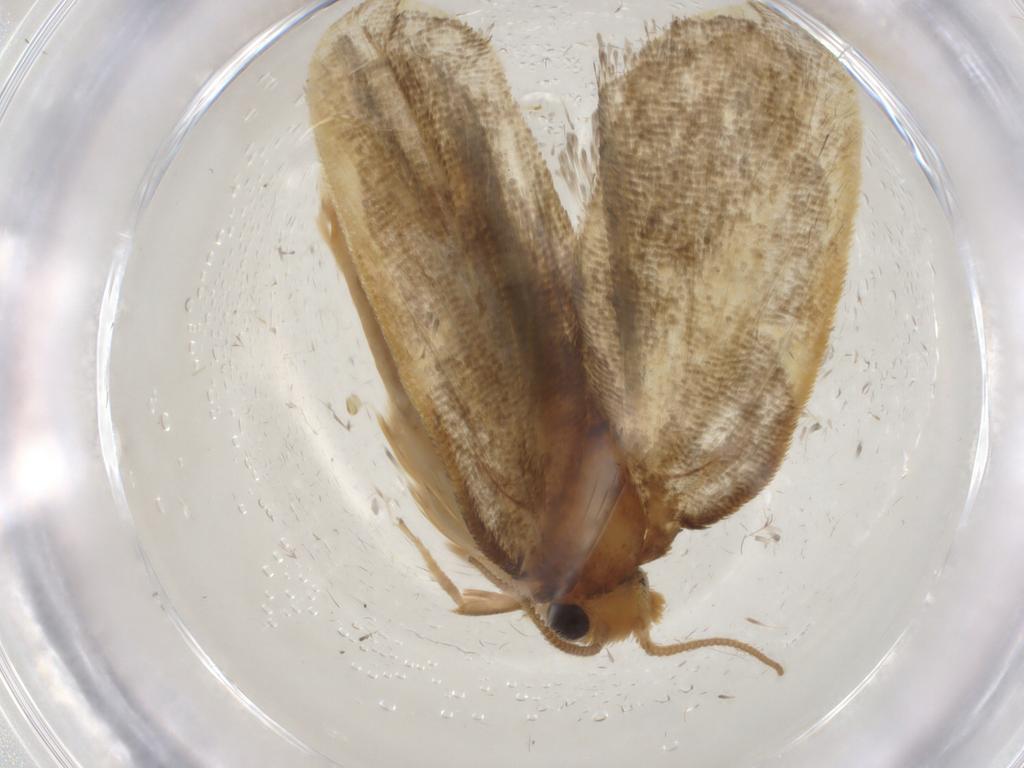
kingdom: Animalia
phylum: Arthropoda
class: Insecta
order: Lepidoptera
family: Psychidae
